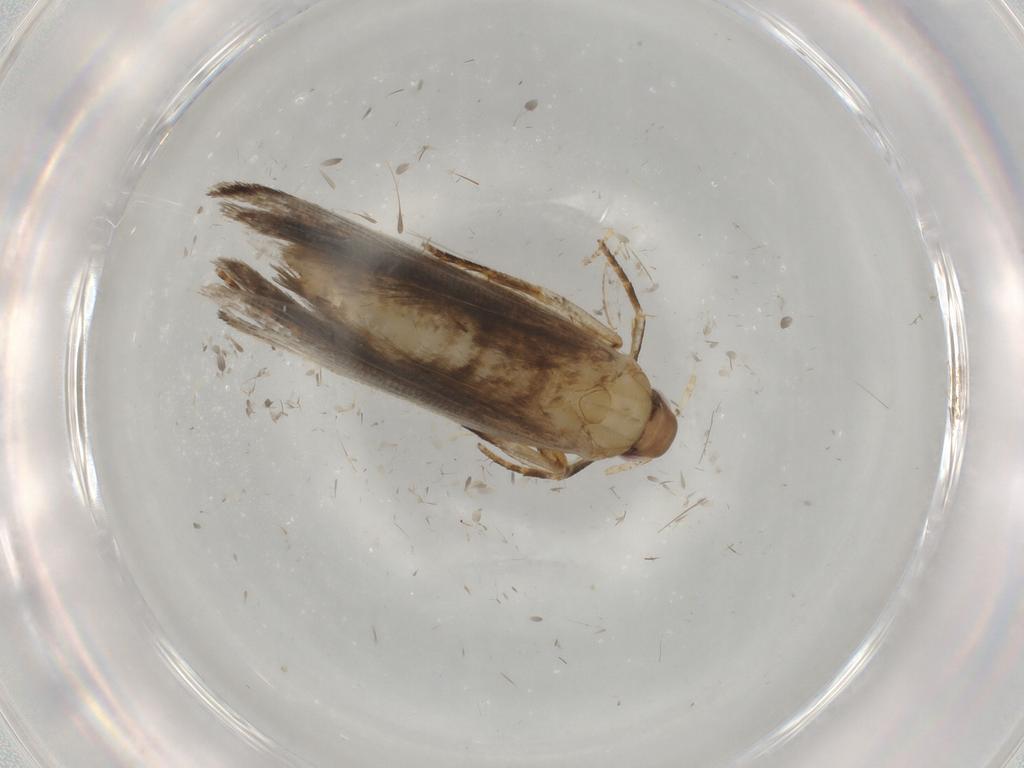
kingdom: Animalia
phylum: Arthropoda
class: Insecta
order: Lepidoptera
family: Gelechiidae
